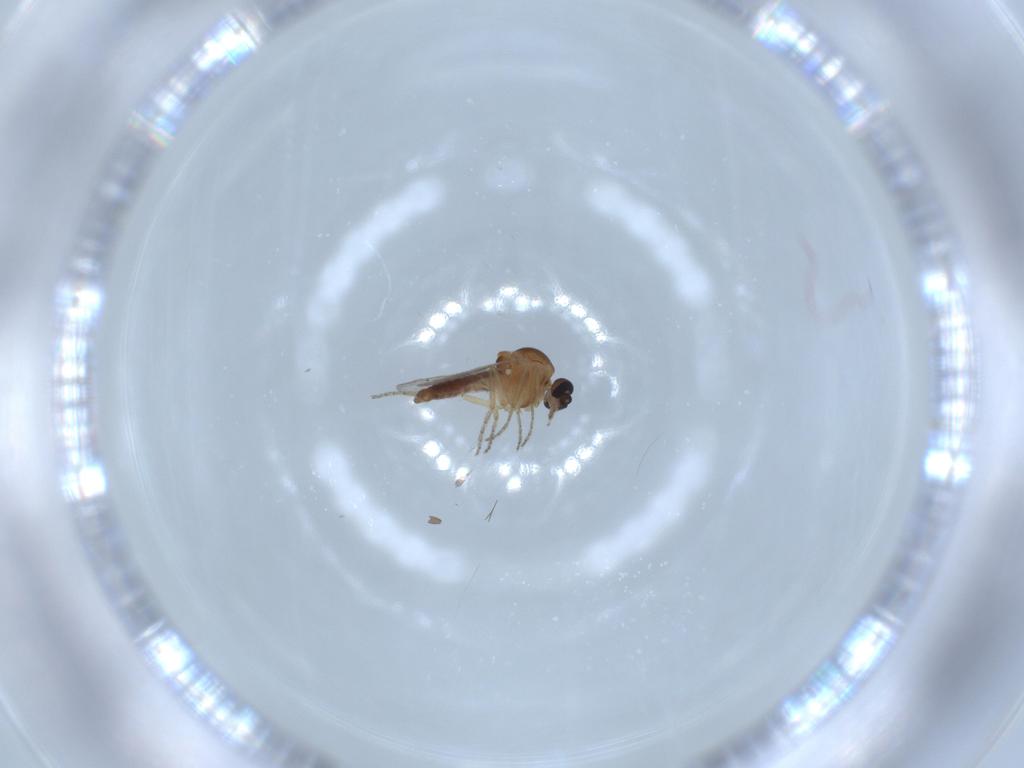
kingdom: Animalia
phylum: Arthropoda
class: Insecta
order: Diptera
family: Ceratopogonidae
